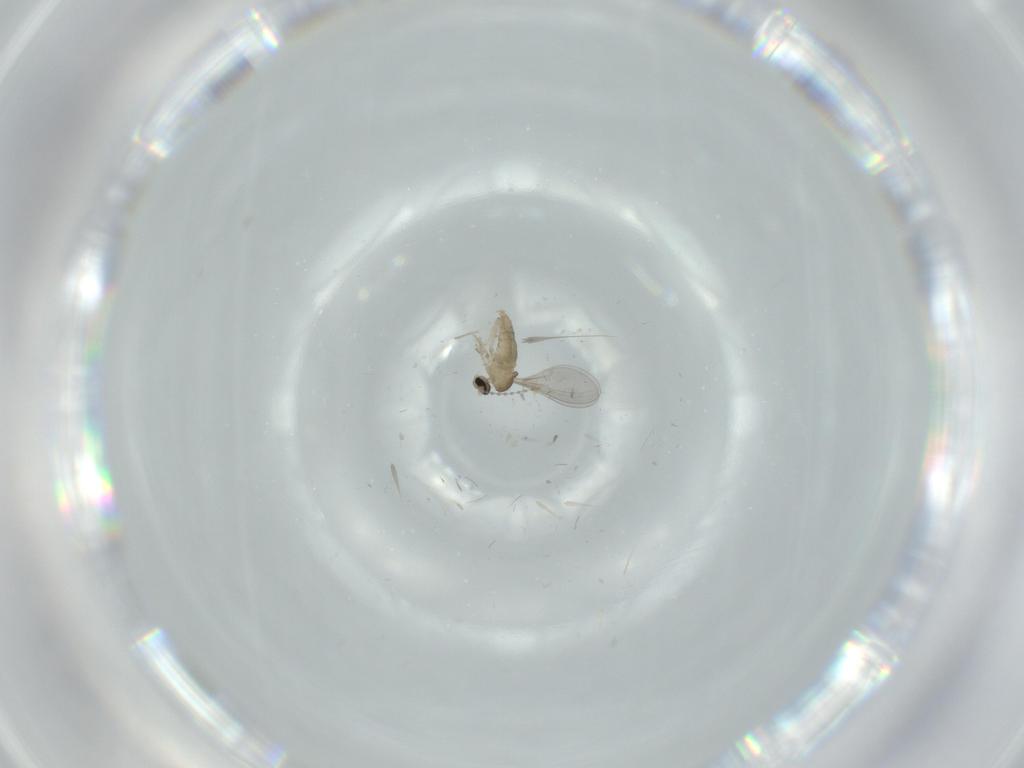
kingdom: Animalia
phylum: Arthropoda
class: Insecta
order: Diptera
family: Cecidomyiidae
